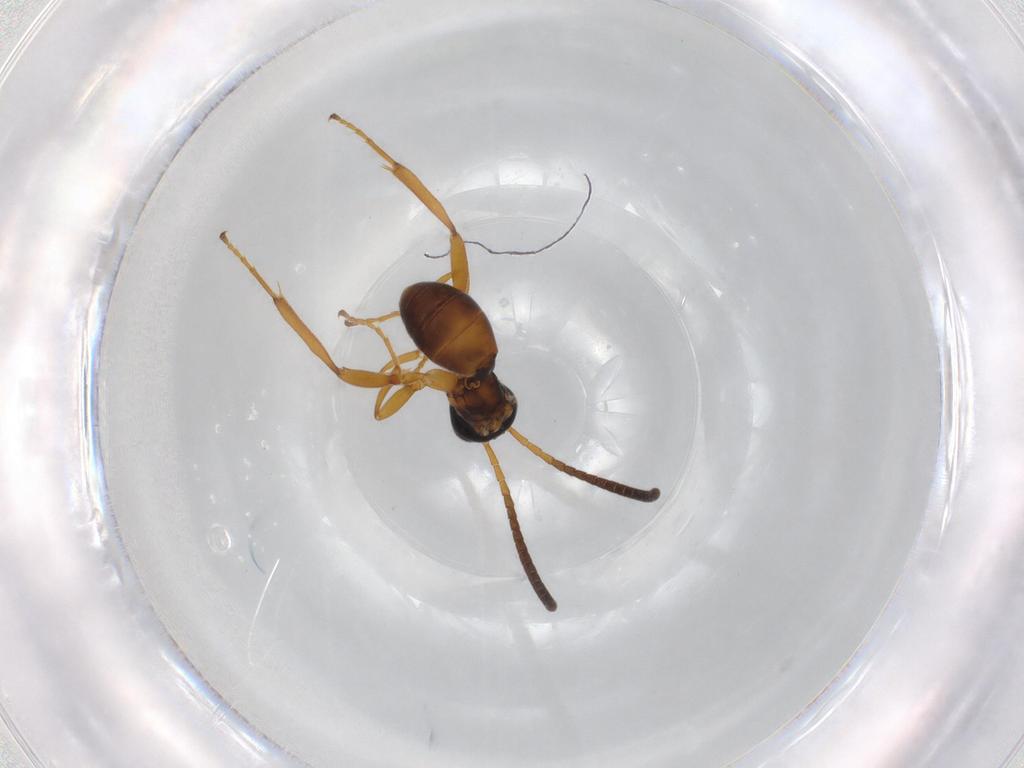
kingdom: Animalia
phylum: Arthropoda
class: Insecta
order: Hymenoptera
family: Ichneumonidae
